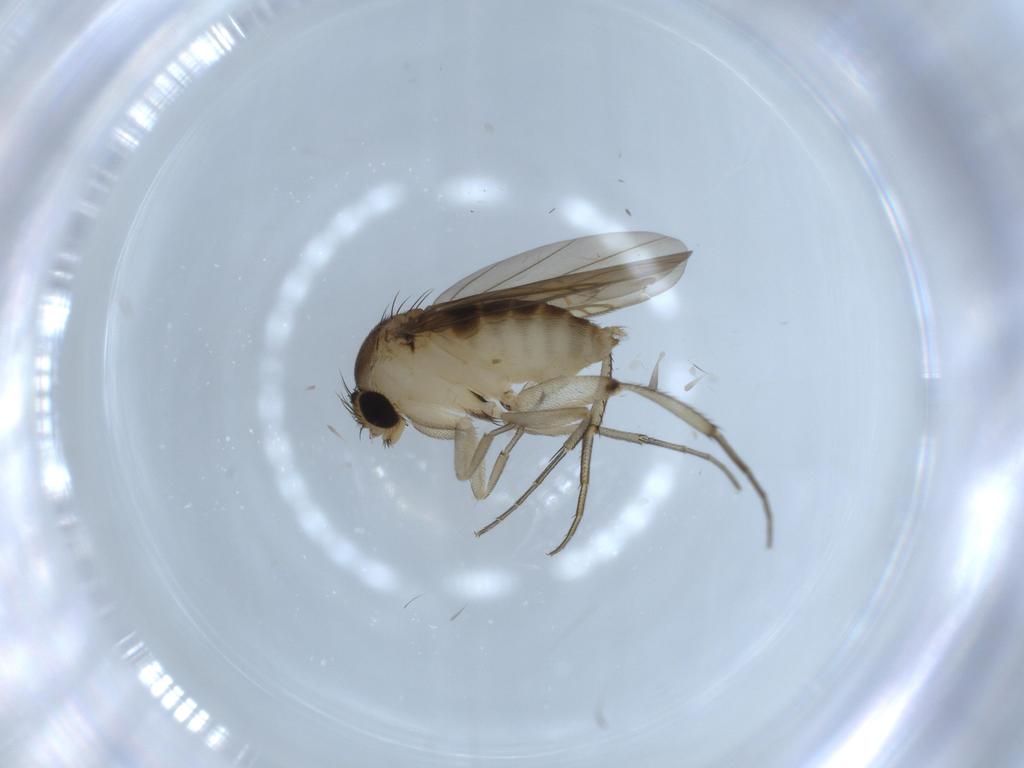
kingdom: Animalia
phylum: Arthropoda
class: Insecta
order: Diptera
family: Phoridae
